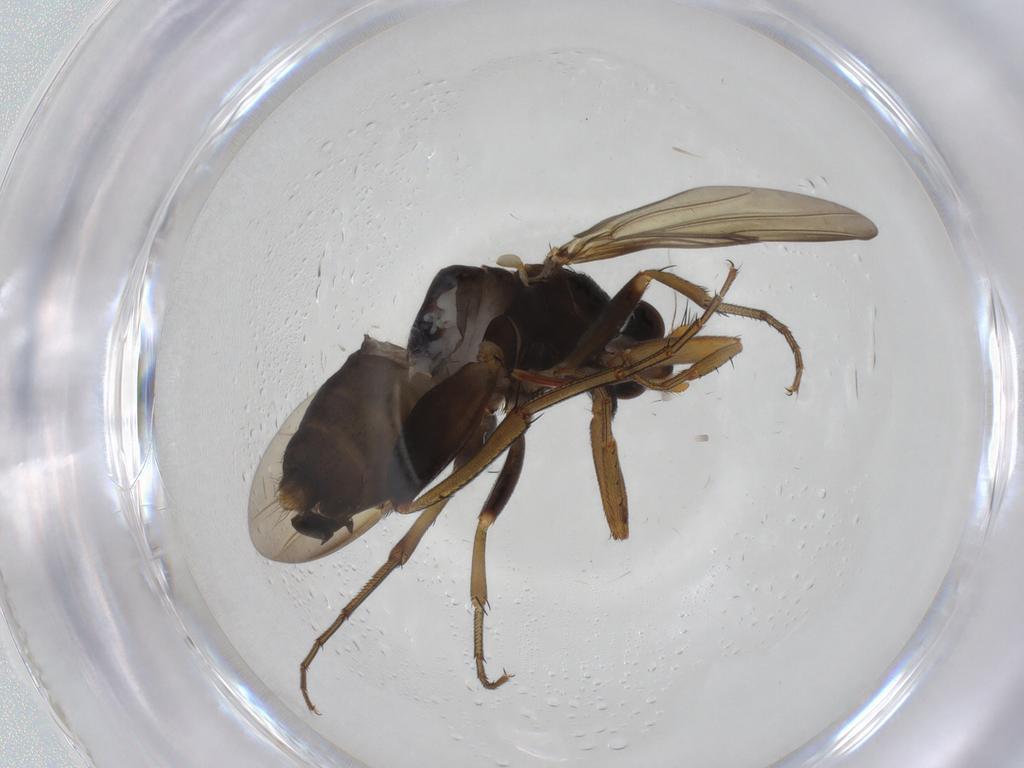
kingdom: Animalia
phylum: Arthropoda
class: Insecta
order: Diptera
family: Phoridae
